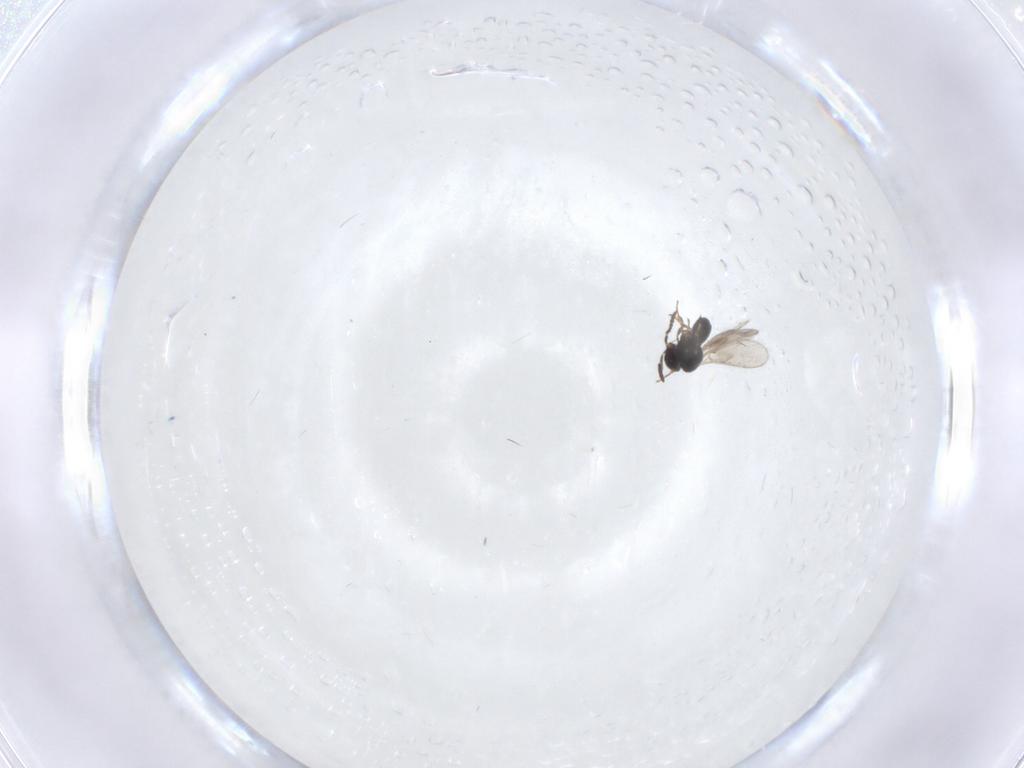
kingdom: Animalia
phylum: Arthropoda
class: Insecta
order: Hymenoptera
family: Scelionidae
